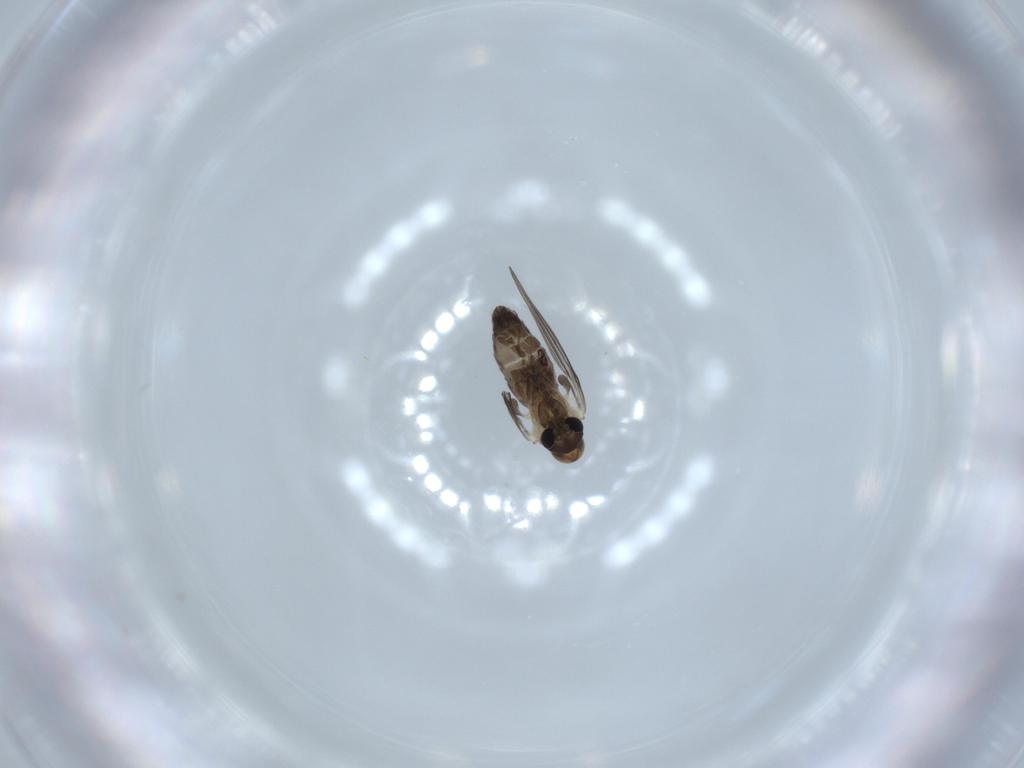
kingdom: Animalia
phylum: Arthropoda
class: Insecta
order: Diptera
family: Psychodidae
